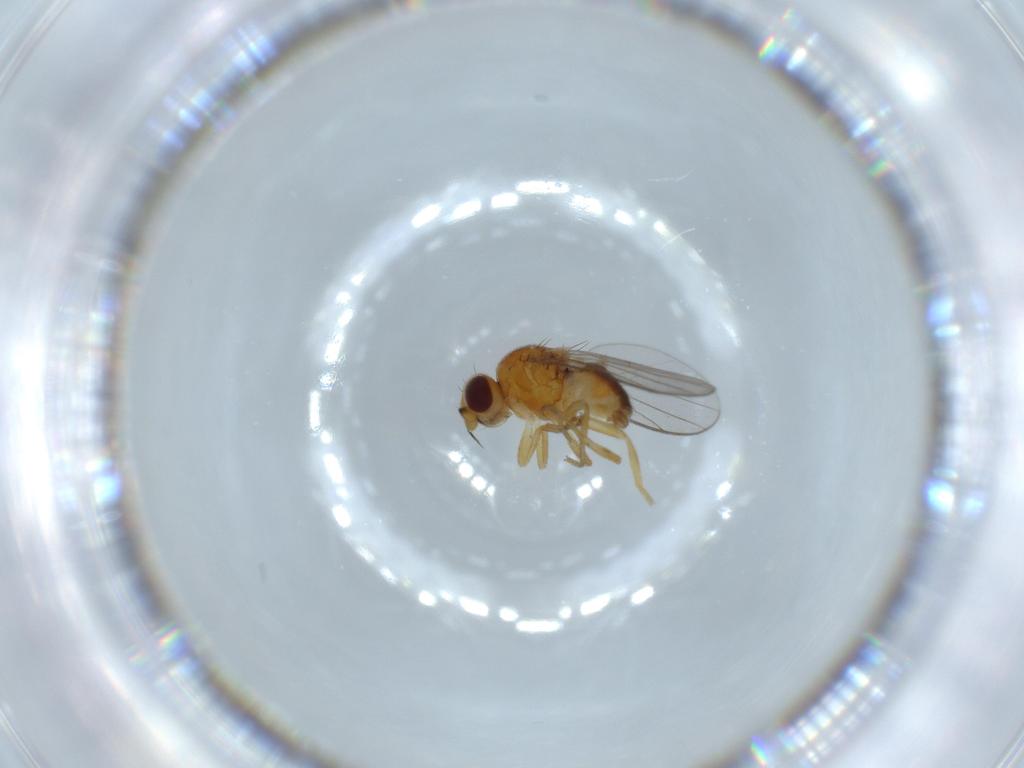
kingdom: Animalia
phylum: Arthropoda
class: Insecta
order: Diptera
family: Chloropidae
